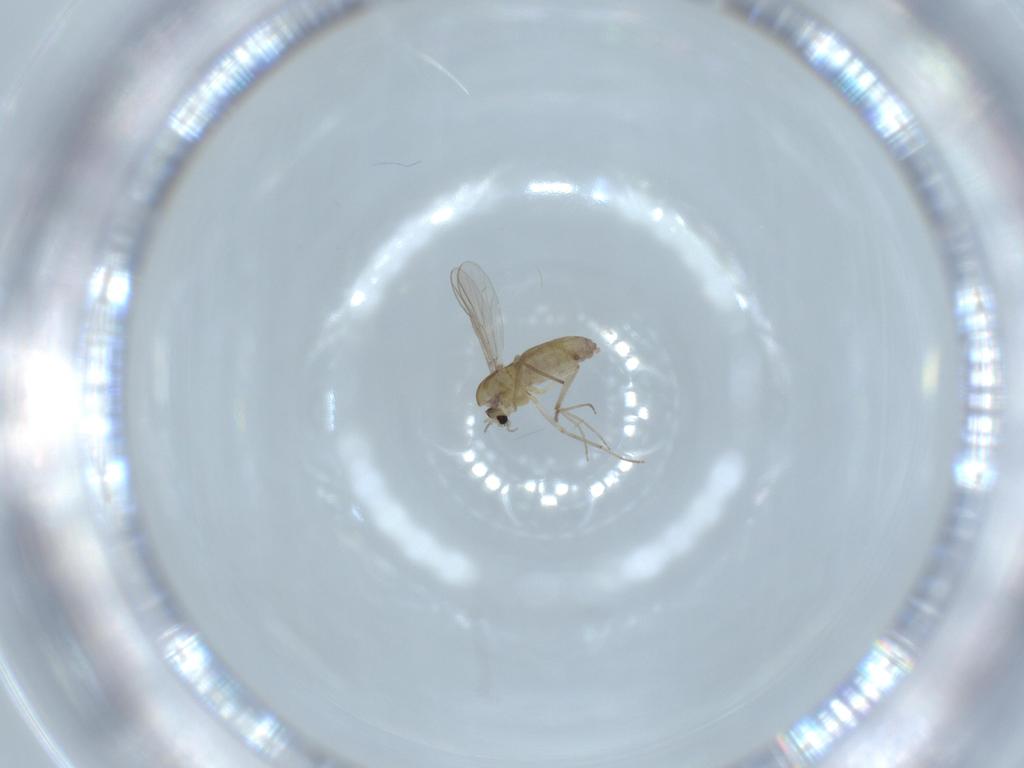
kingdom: Animalia
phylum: Arthropoda
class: Insecta
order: Diptera
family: Chironomidae
